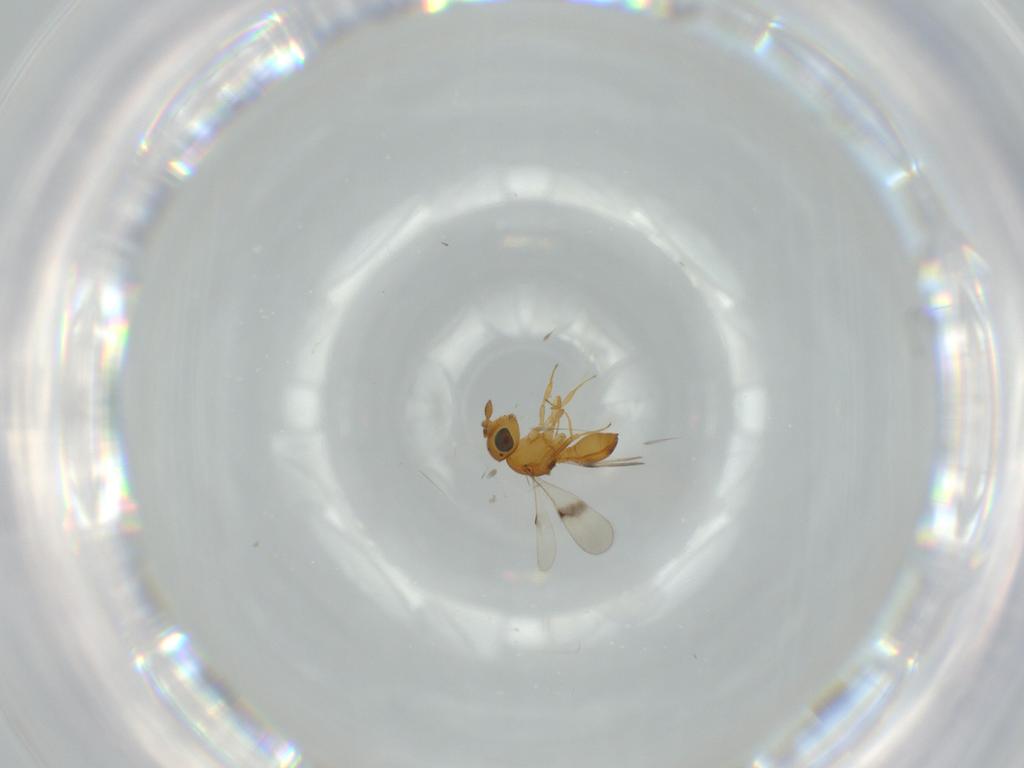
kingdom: Animalia
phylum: Arthropoda
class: Insecta
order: Hymenoptera
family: Scelionidae
